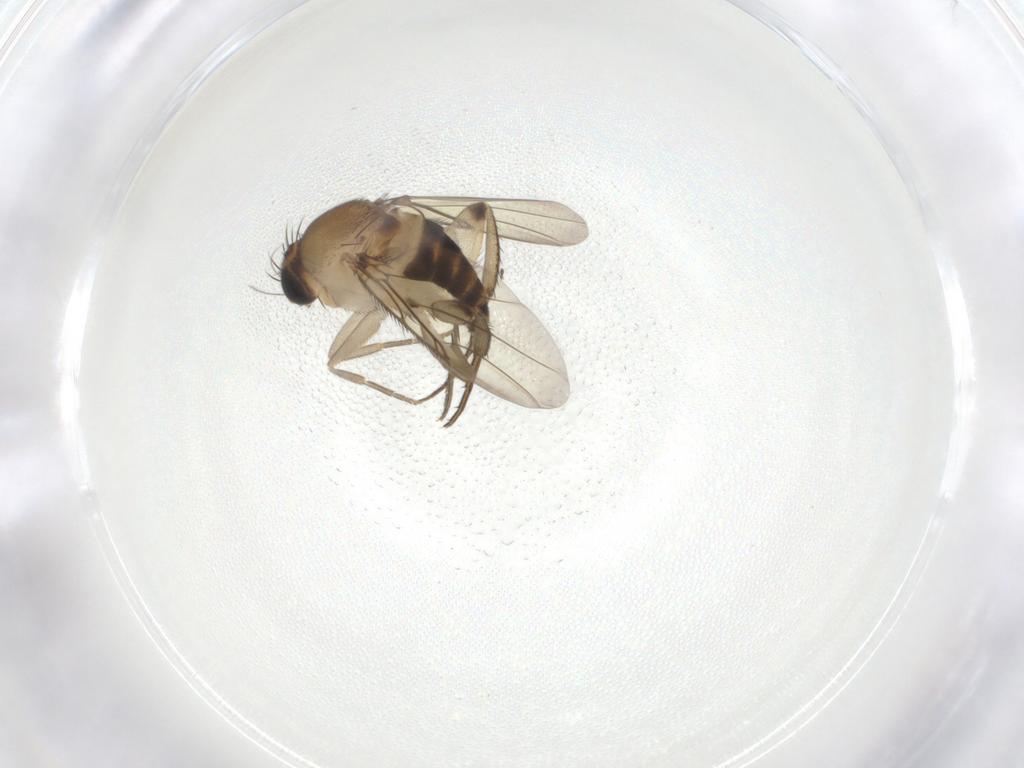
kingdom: Animalia
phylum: Arthropoda
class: Insecta
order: Diptera
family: Phoridae
